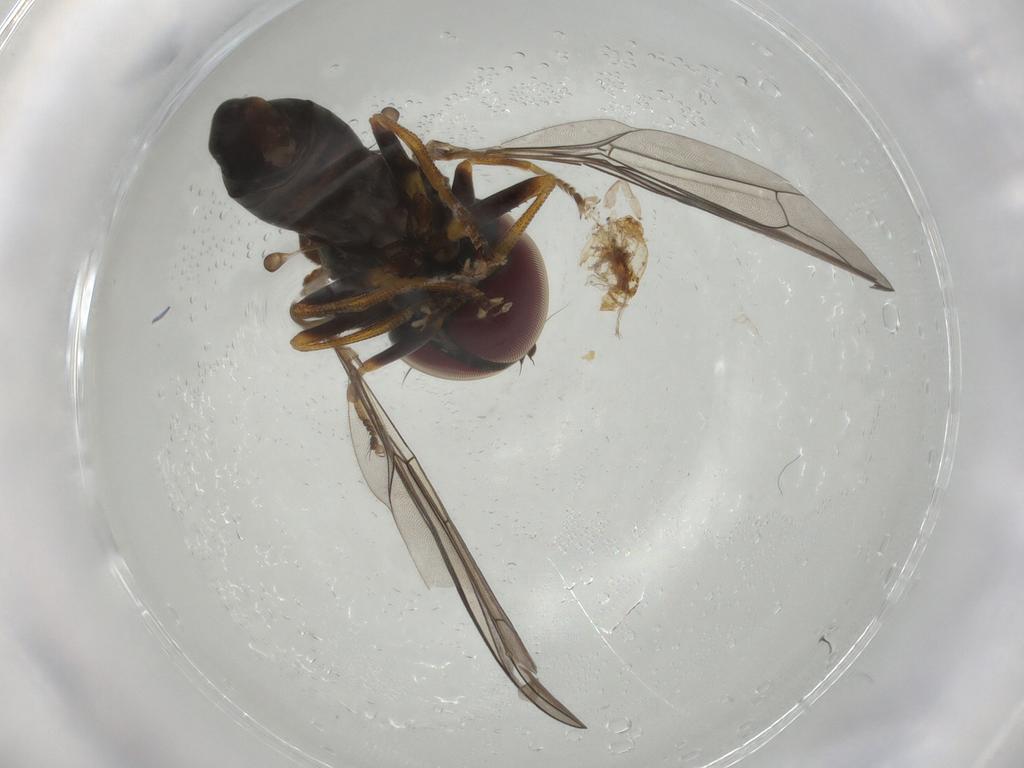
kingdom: Animalia
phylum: Arthropoda
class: Insecta
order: Diptera
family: Pipunculidae
